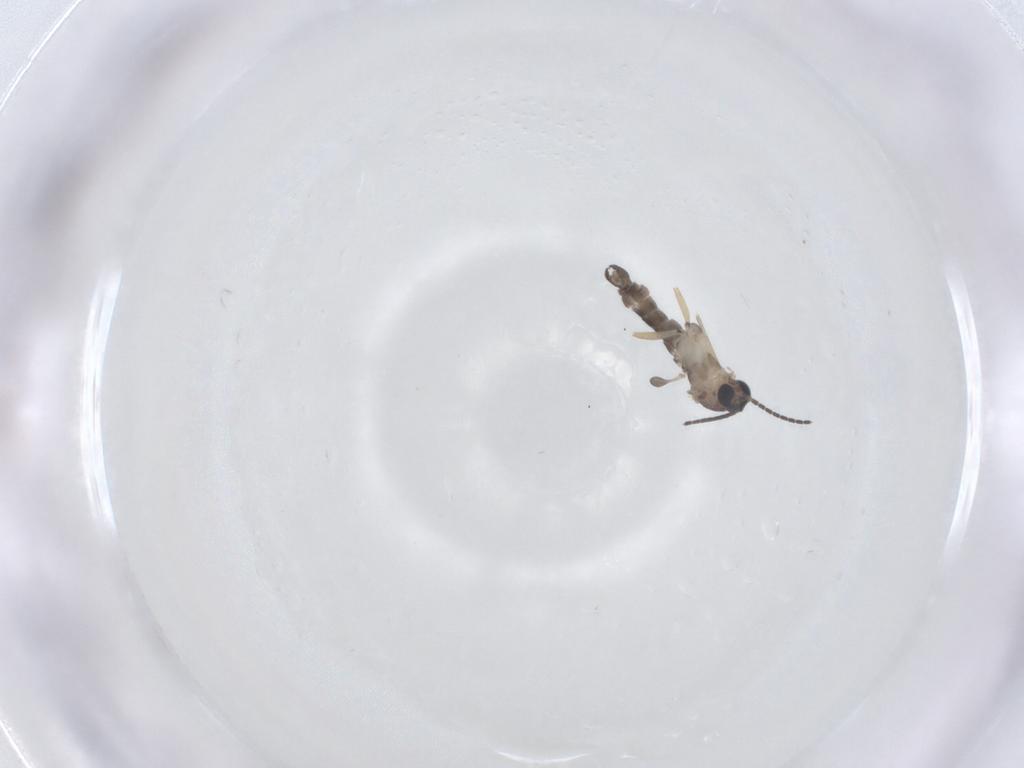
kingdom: Animalia
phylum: Arthropoda
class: Insecta
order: Diptera
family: Sciaridae
